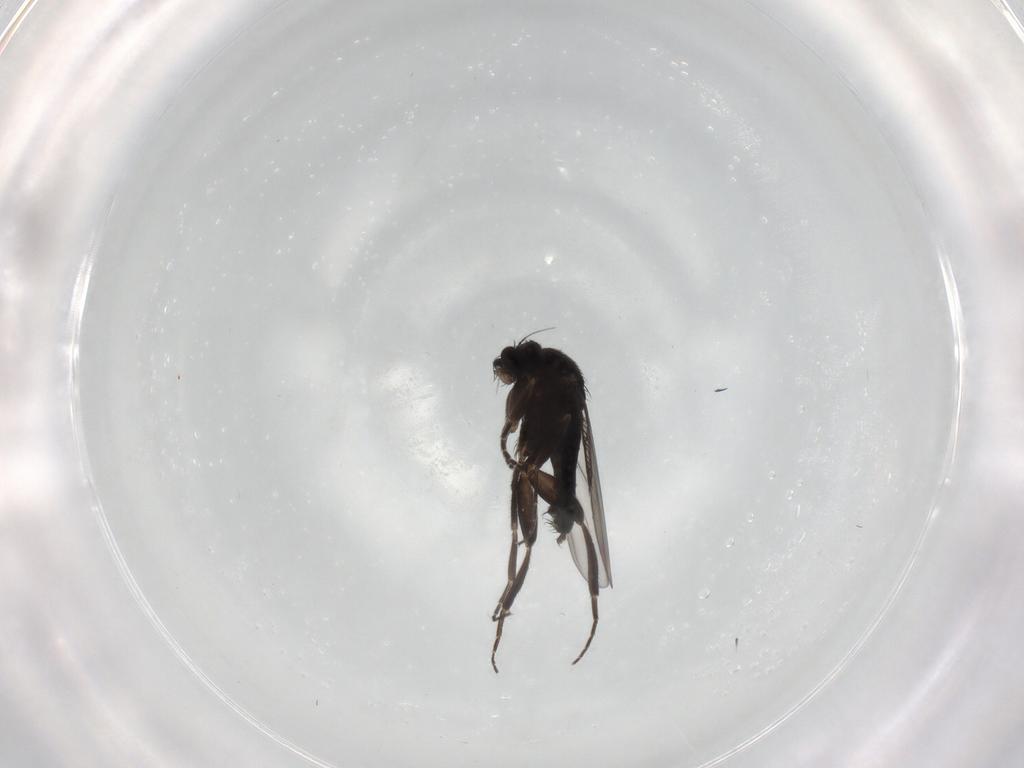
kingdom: Animalia
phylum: Arthropoda
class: Insecta
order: Diptera
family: Phoridae
